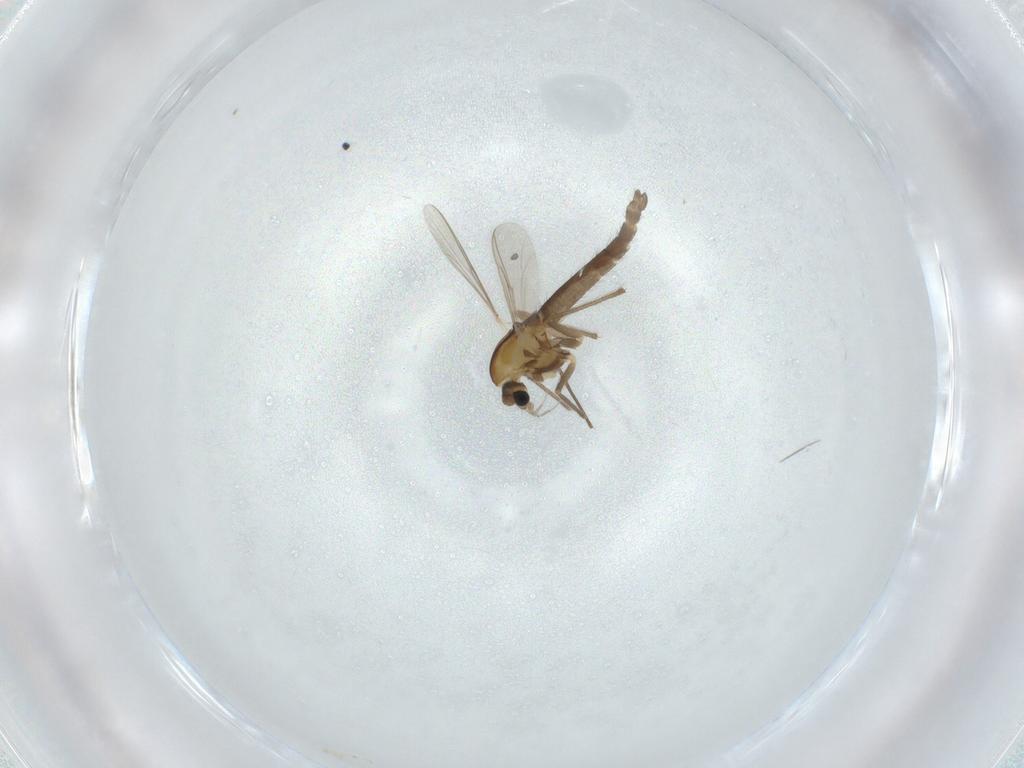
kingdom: Animalia
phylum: Arthropoda
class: Insecta
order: Diptera
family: Chironomidae
